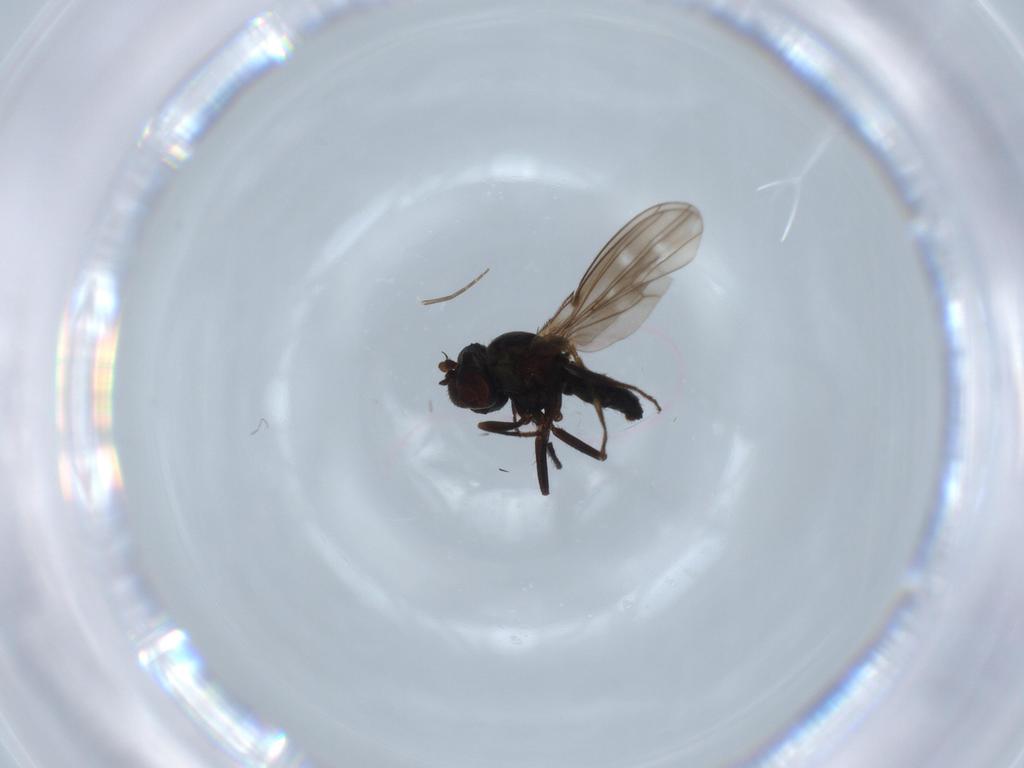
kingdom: Animalia
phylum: Arthropoda
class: Insecta
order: Diptera
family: Ephydridae
